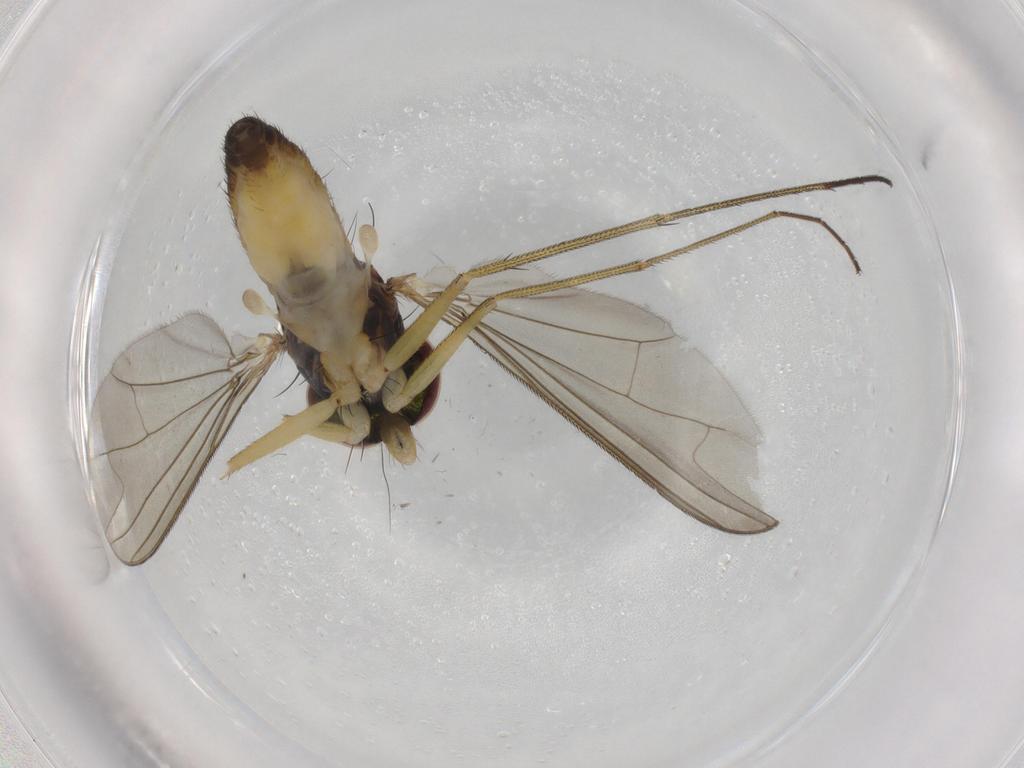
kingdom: Animalia
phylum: Arthropoda
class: Insecta
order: Diptera
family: Dolichopodidae
